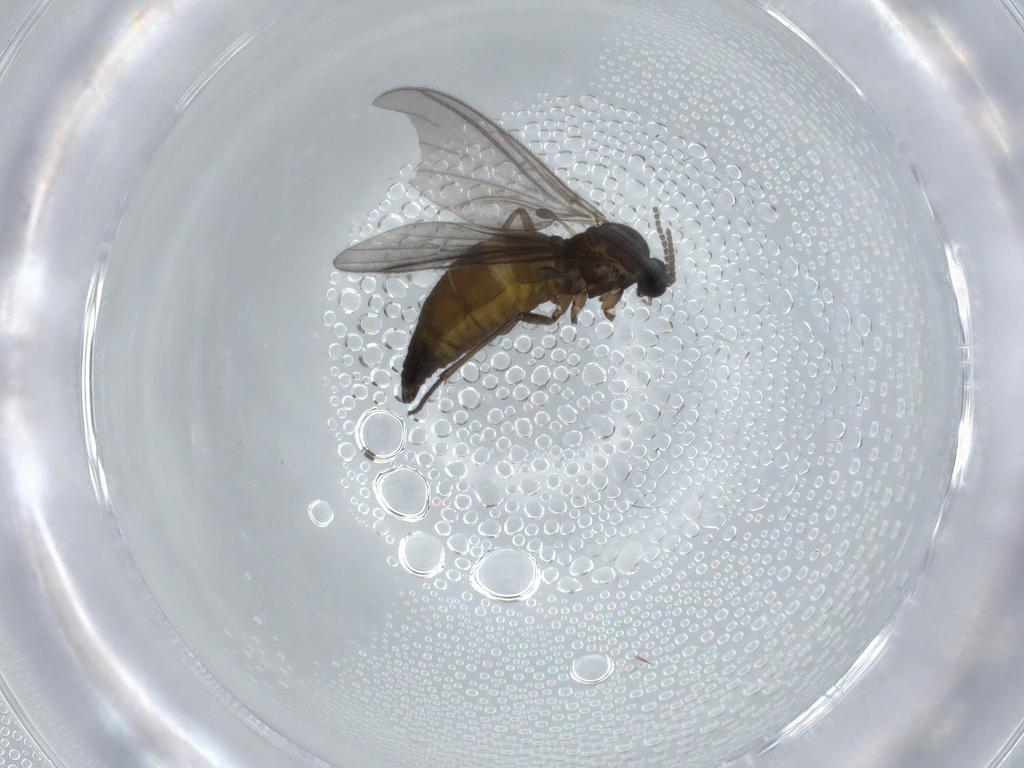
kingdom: Animalia
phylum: Arthropoda
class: Insecta
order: Diptera
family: Sciaridae
